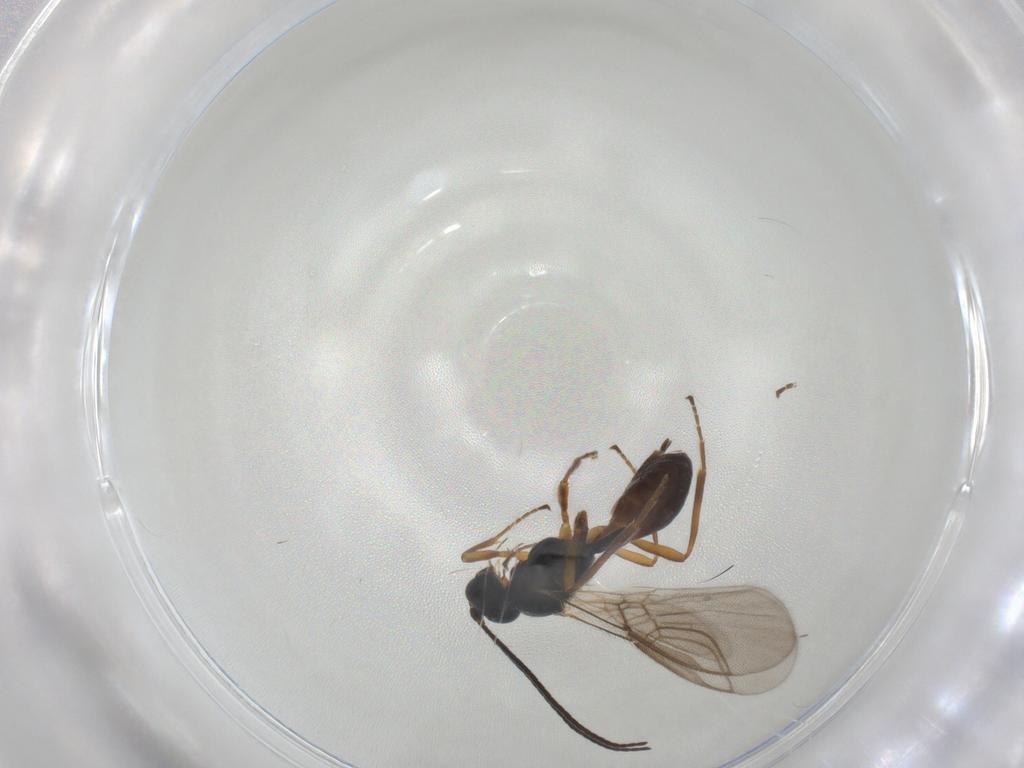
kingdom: Animalia
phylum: Arthropoda
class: Insecta
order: Hymenoptera
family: Braconidae
